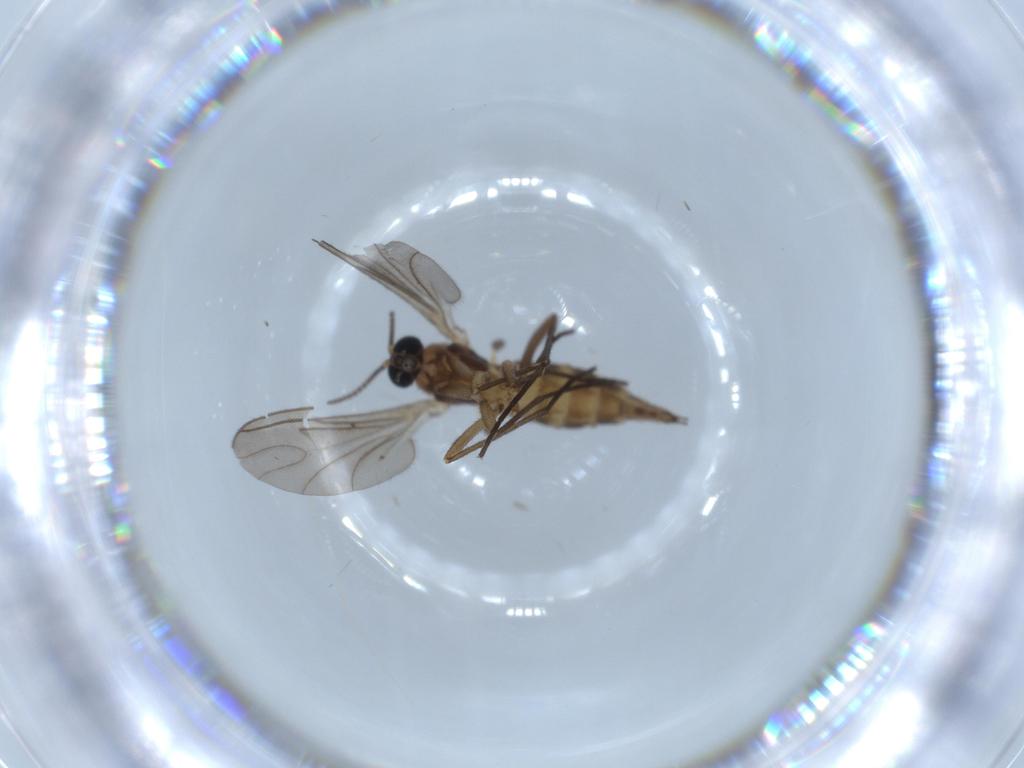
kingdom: Animalia
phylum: Arthropoda
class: Insecta
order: Diptera
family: Sciaridae
